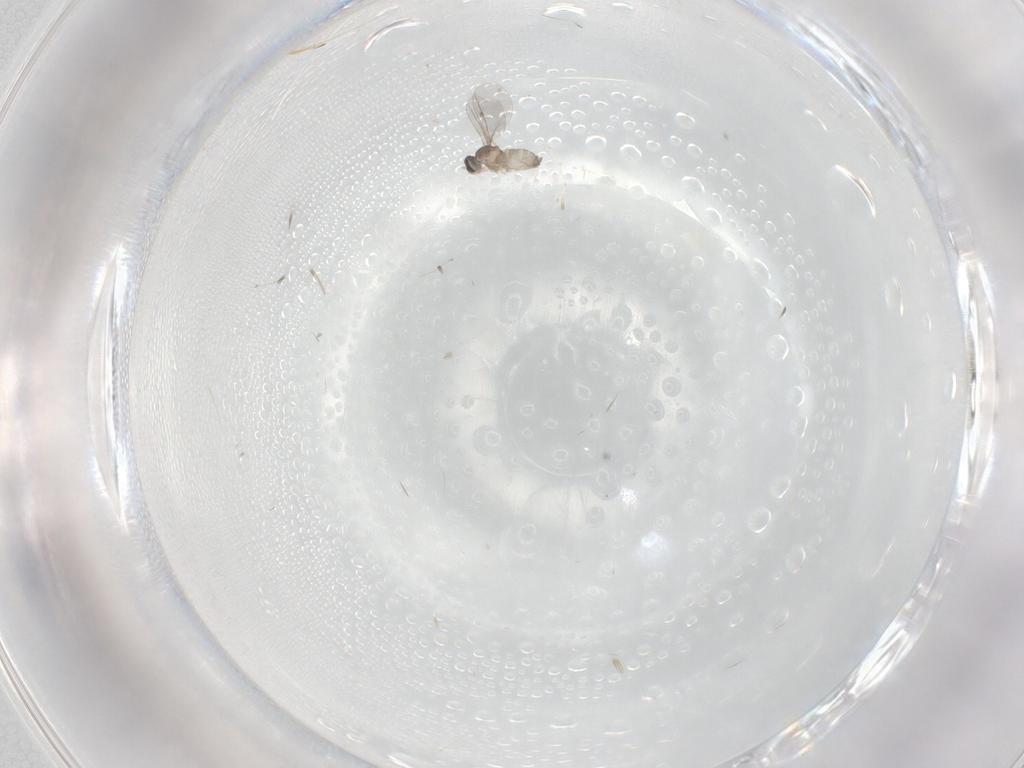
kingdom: Animalia
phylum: Arthropoda
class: Insecta
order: Diptera
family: Cecidomyiidae
